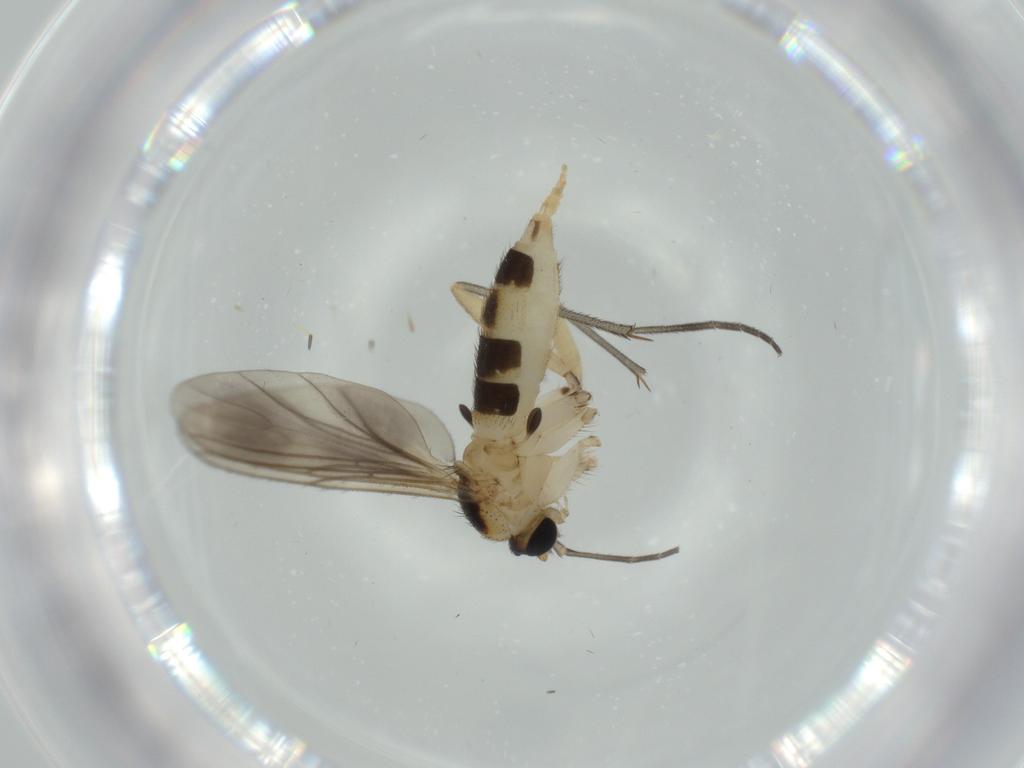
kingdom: Animalia
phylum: Arthropoda
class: Insecta
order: Diptera
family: Sciaridae
